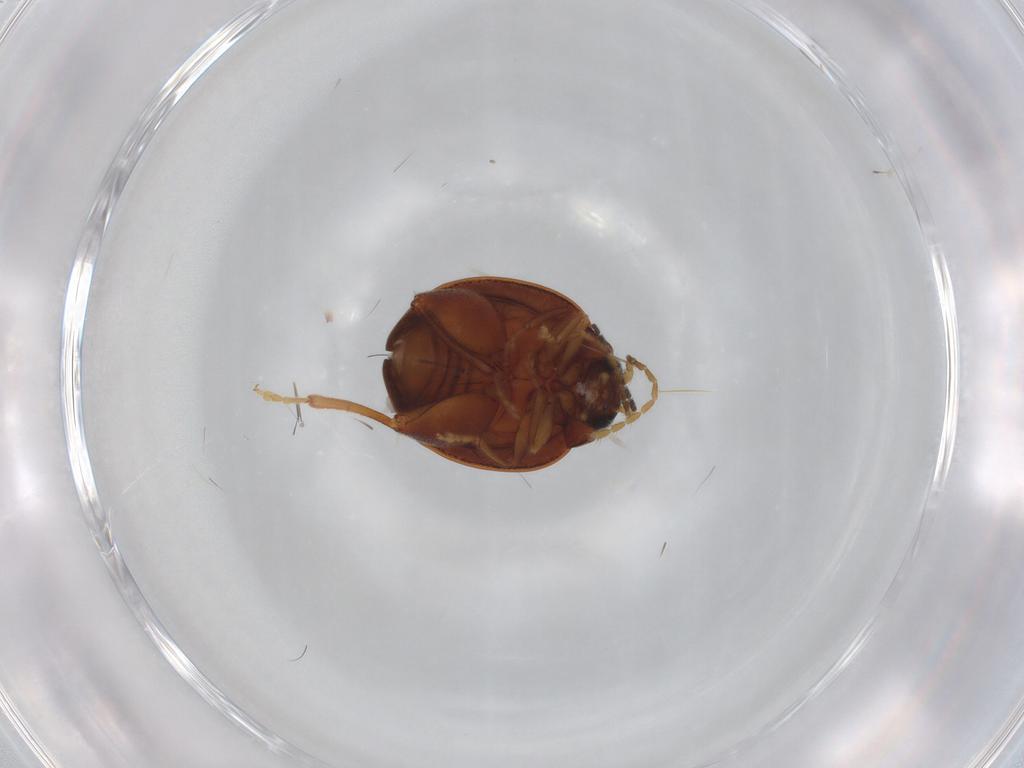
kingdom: Animalia
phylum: Arthropoda
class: Insecta
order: Coleoptera
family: Chrysomelidae
